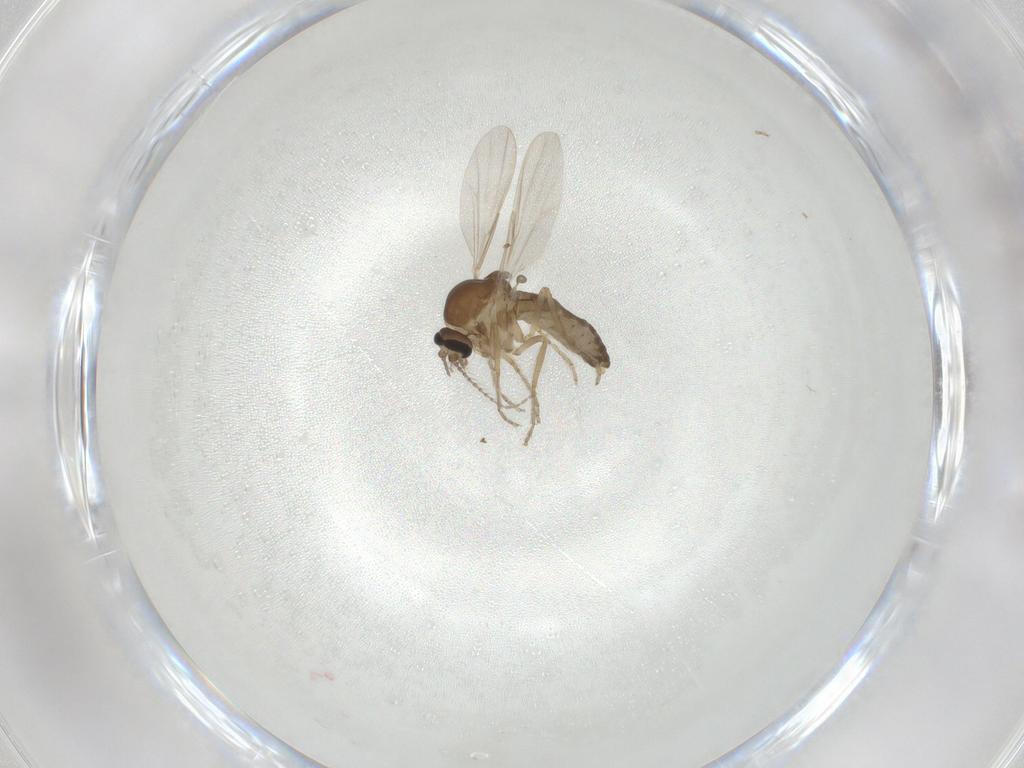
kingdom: Animalia
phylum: Arthropoda
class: Insecta
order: Diptera
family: Ceratopogonidae
